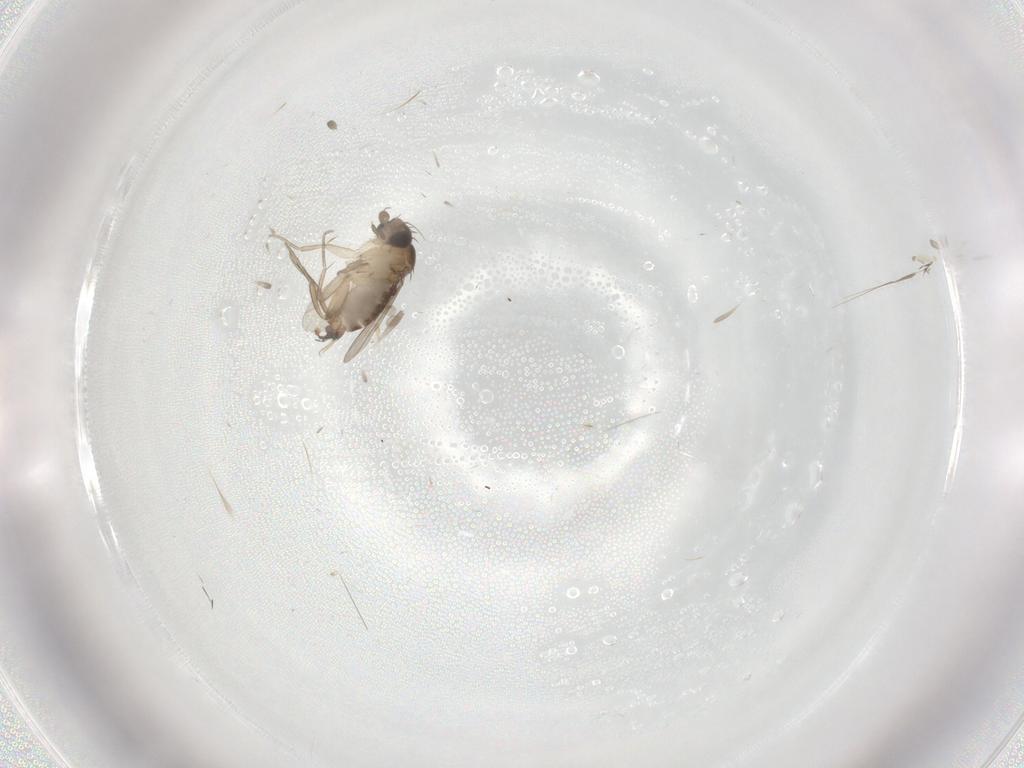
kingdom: Animalia
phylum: Arthropoda
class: Insecta
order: Diptera
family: Phoridae
